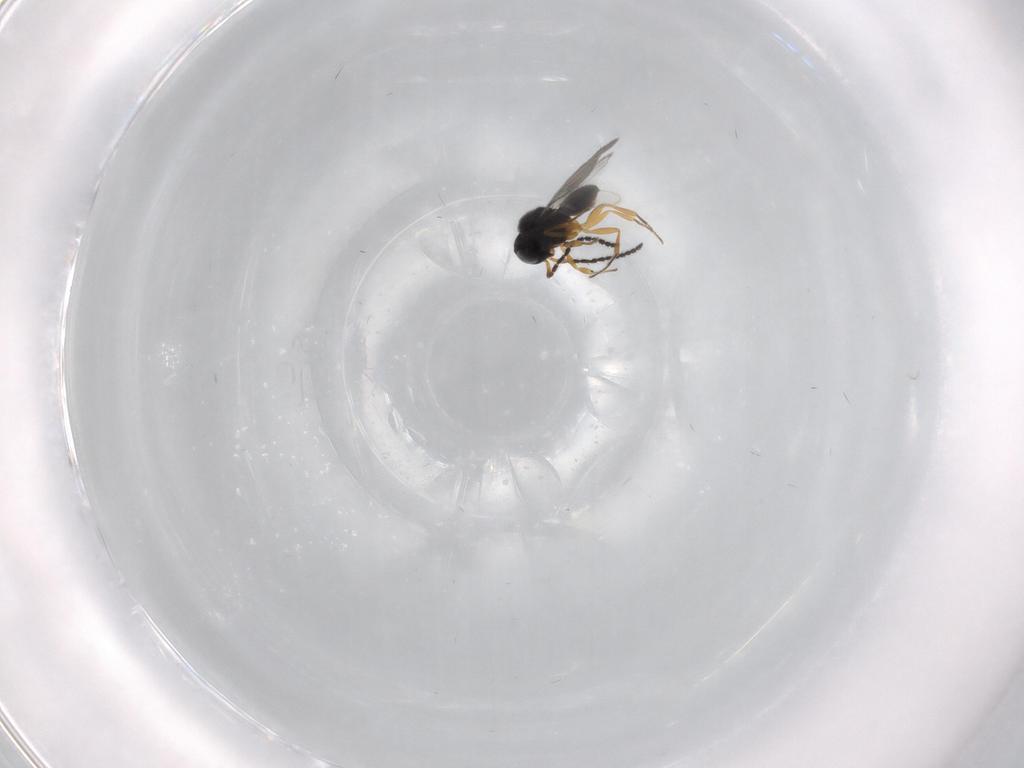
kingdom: Animalia
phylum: Arthropoda
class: Insecta
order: Hymenoptera
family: Scelionidae
